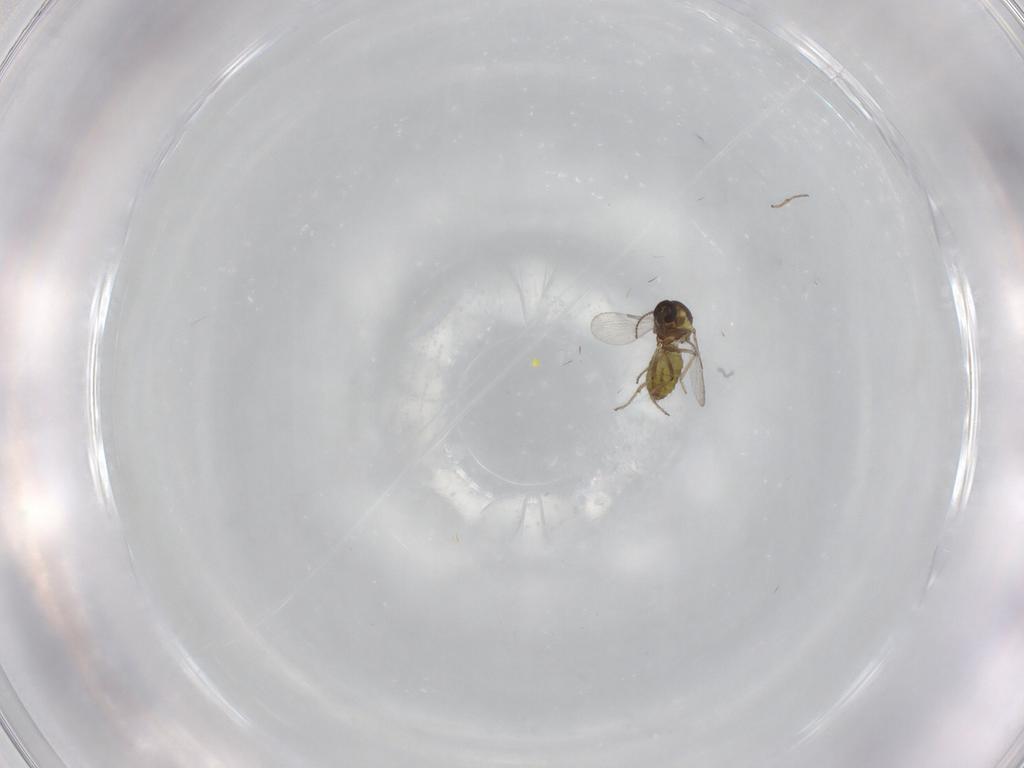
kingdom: Animalia
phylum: Arthropoda
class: Insecta
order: Diptera
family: Ceratopogonidae
